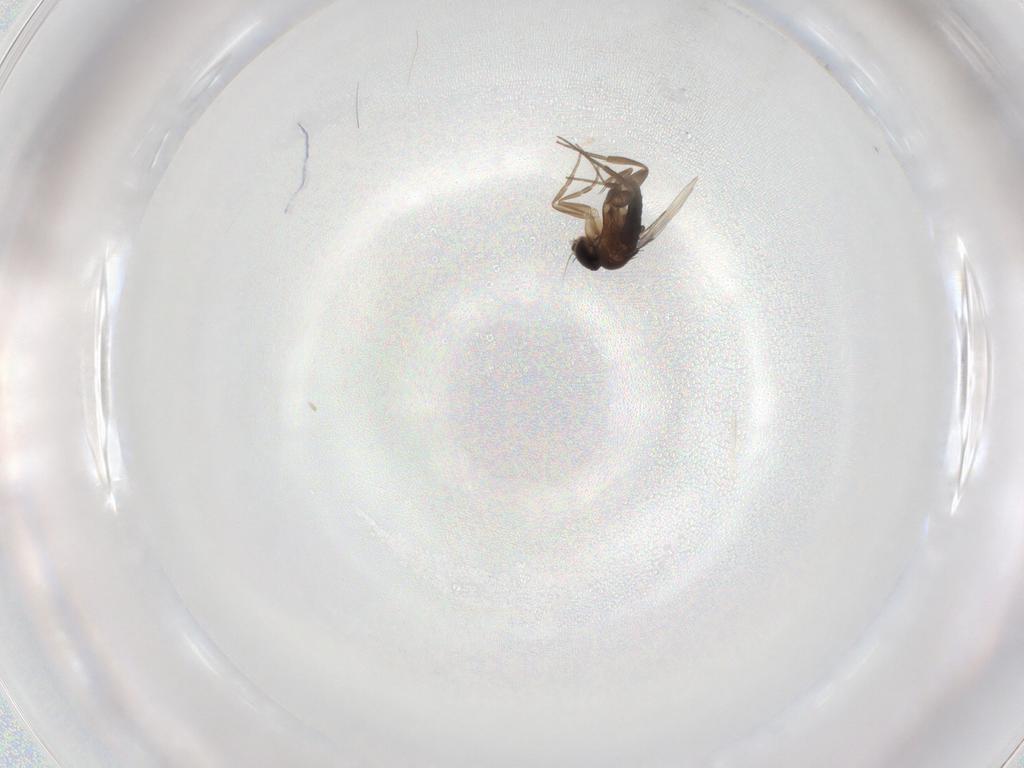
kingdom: Animalia
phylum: Arthropoda
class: Insecta
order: Diptera
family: Phoridae
